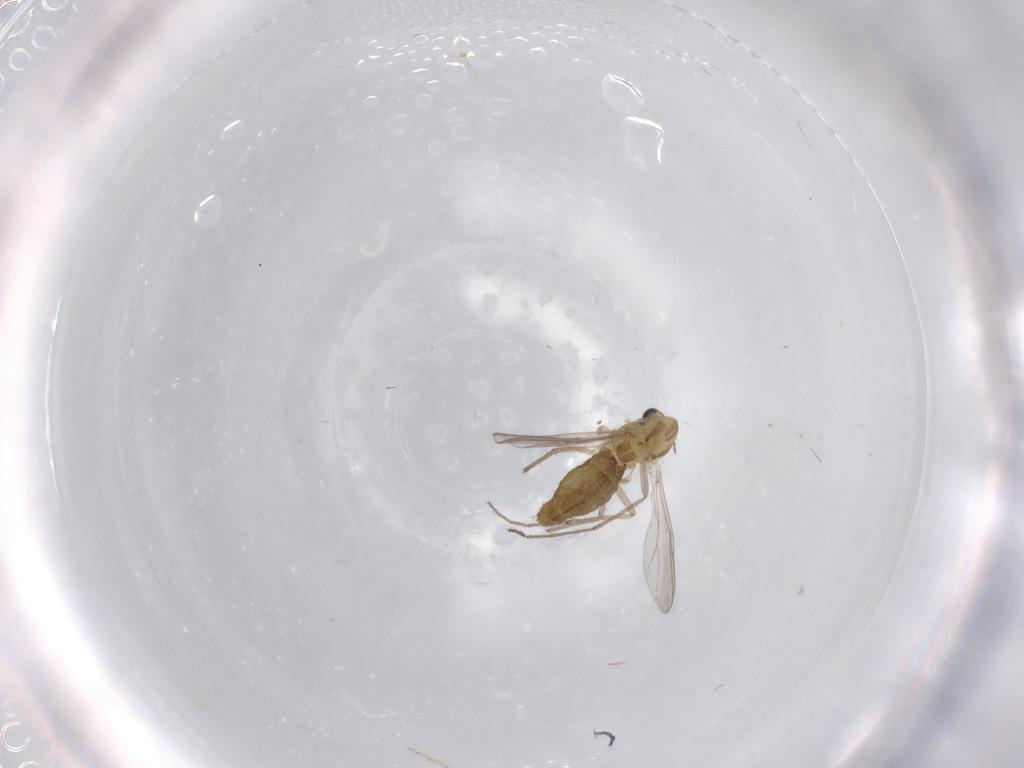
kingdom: Animalia
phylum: Arthropoda
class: Insecta
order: Diptera
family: Chironomidae
